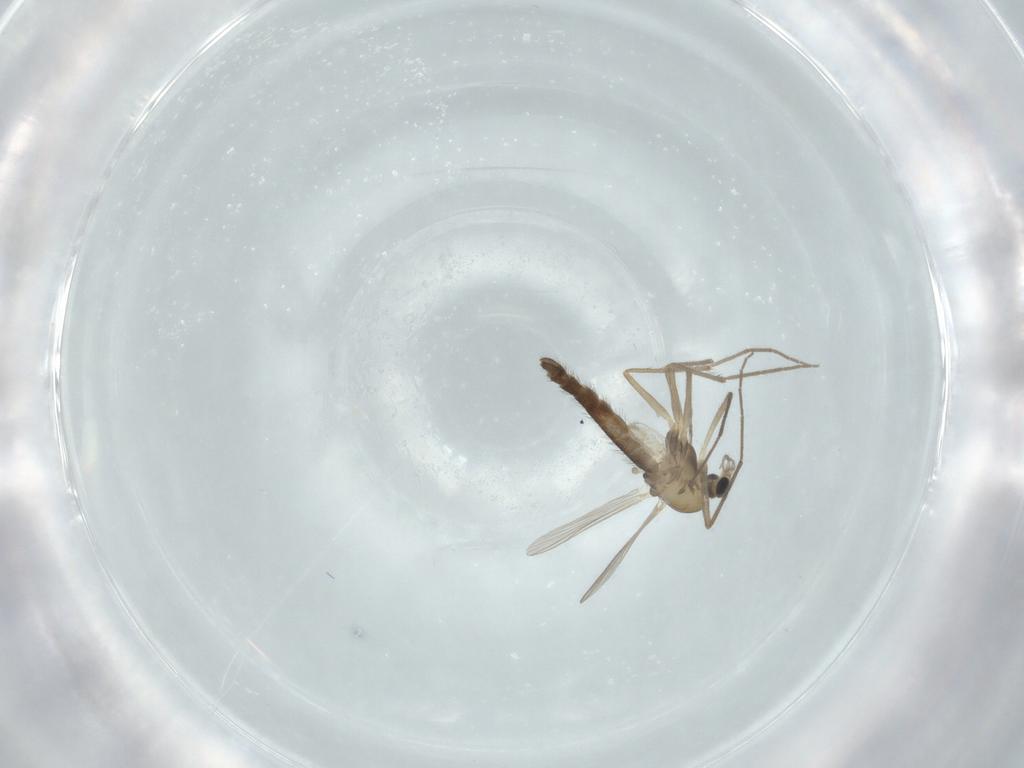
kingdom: Animalia
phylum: Arthropoda
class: Insecta
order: Diptera
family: Chironomidae
